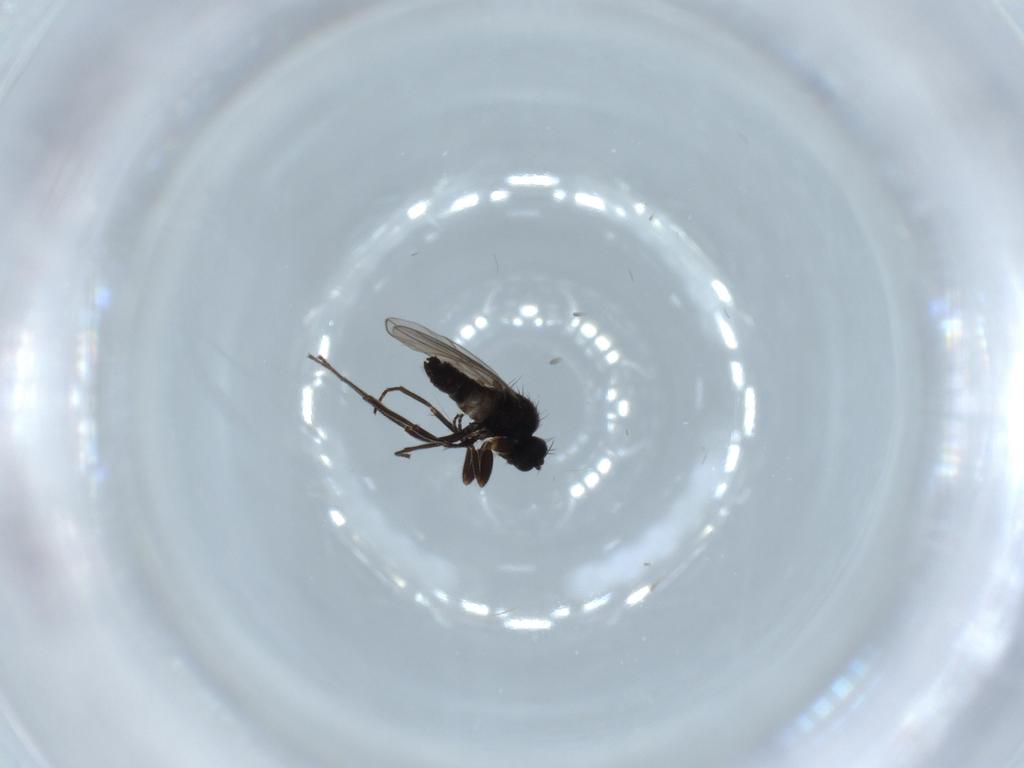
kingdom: Animalia
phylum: Arthropoda
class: Insecta
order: Diptera
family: Hybotidae
